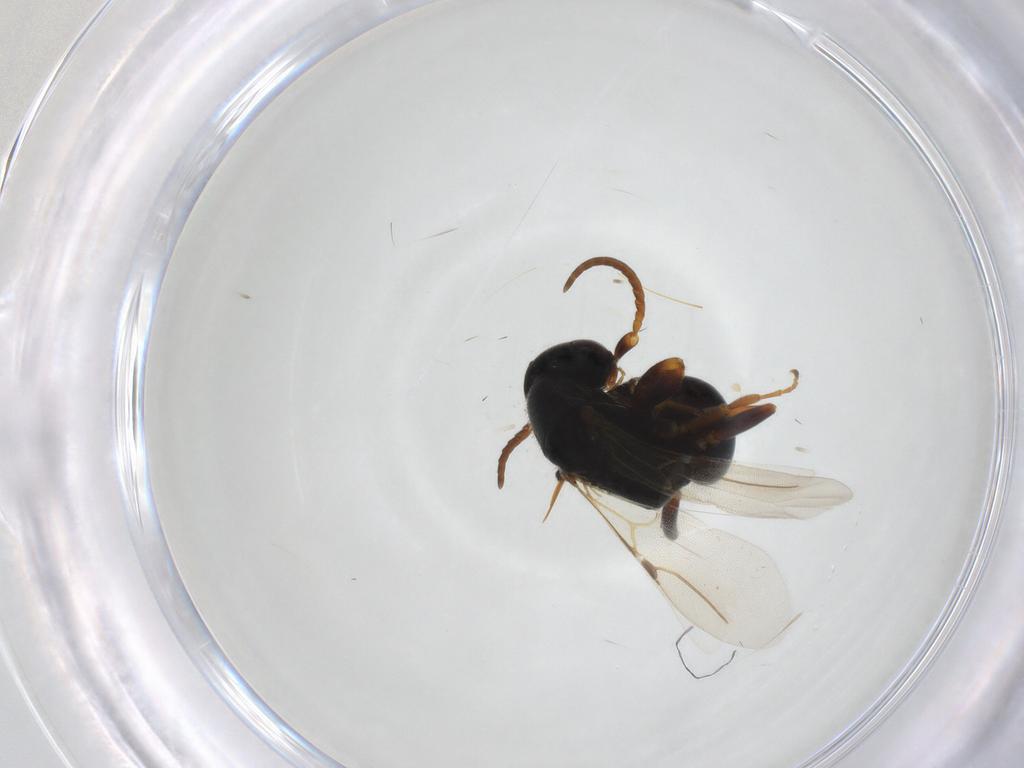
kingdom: Animalia
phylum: Arthropoda
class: Insecta
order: Hymenoptera
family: Bethylidae
